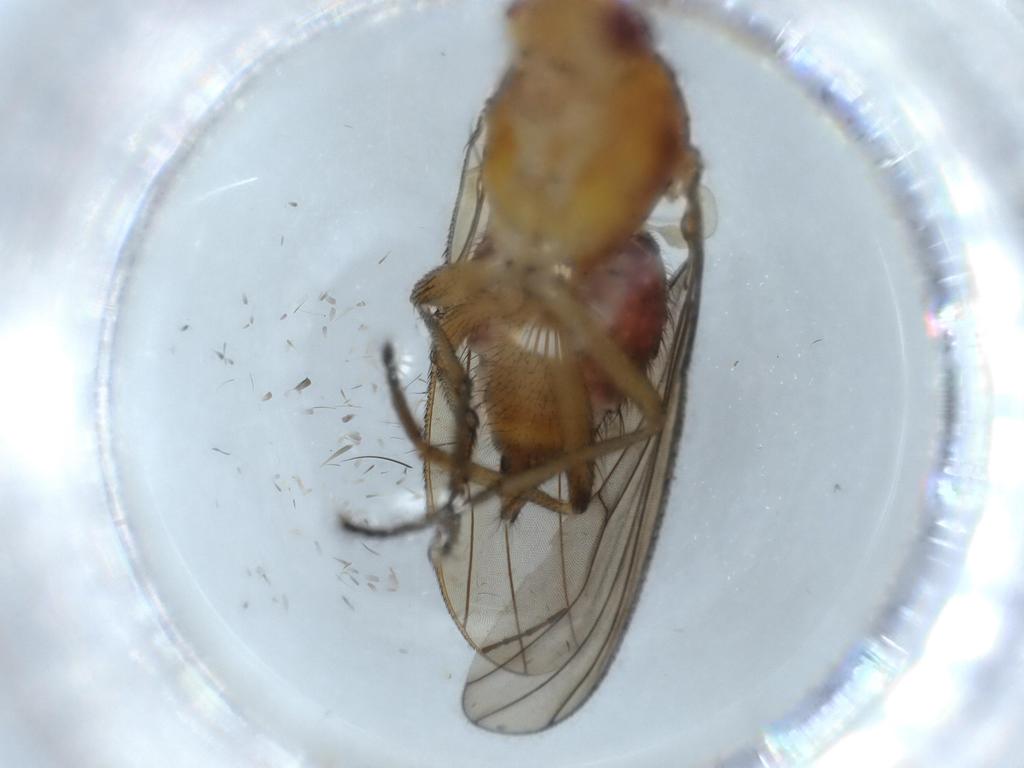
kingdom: Animalia
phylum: Arthropoda
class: Insecta
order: Diptera
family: Heleomyzidae
